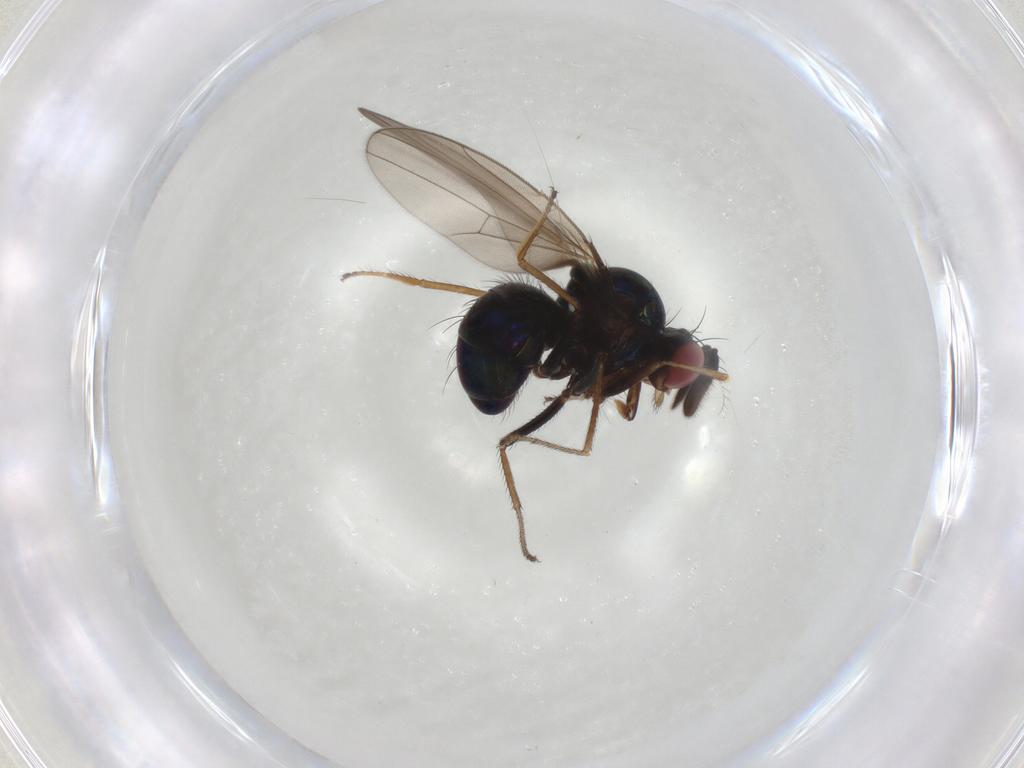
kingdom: Animalia
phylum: Arthropoda
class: Insecta
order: Diptera
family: Ephydridae
